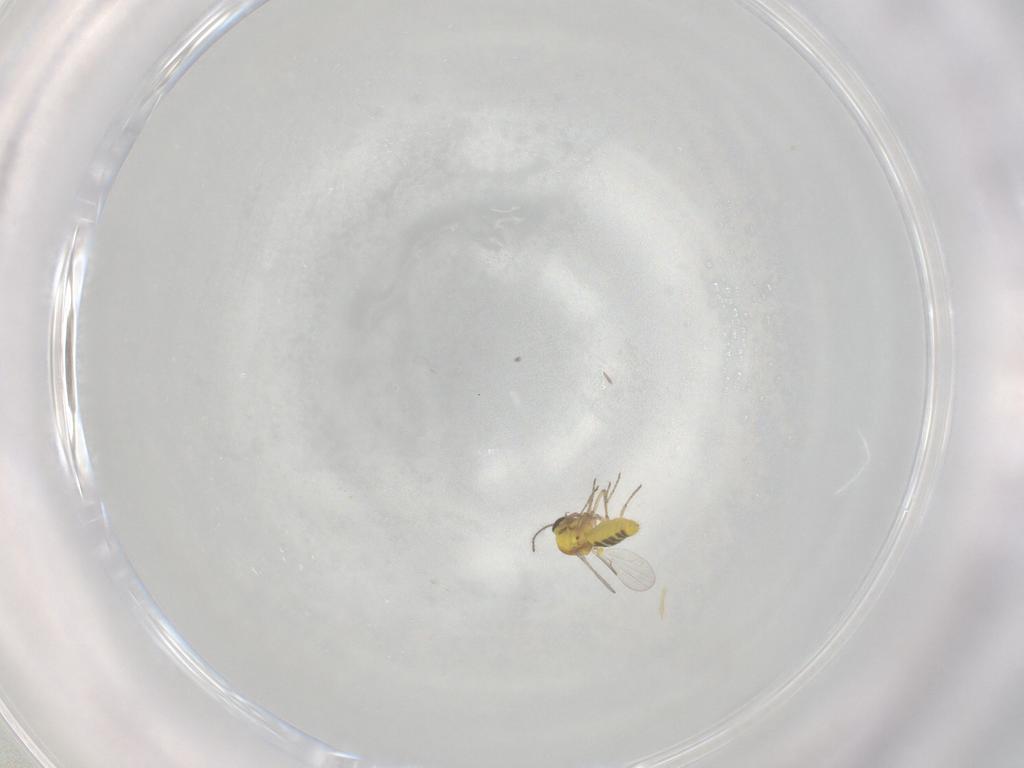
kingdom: Animalia
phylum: Arthropoda
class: Insecta
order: Diptera
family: Ceratopogonidae
